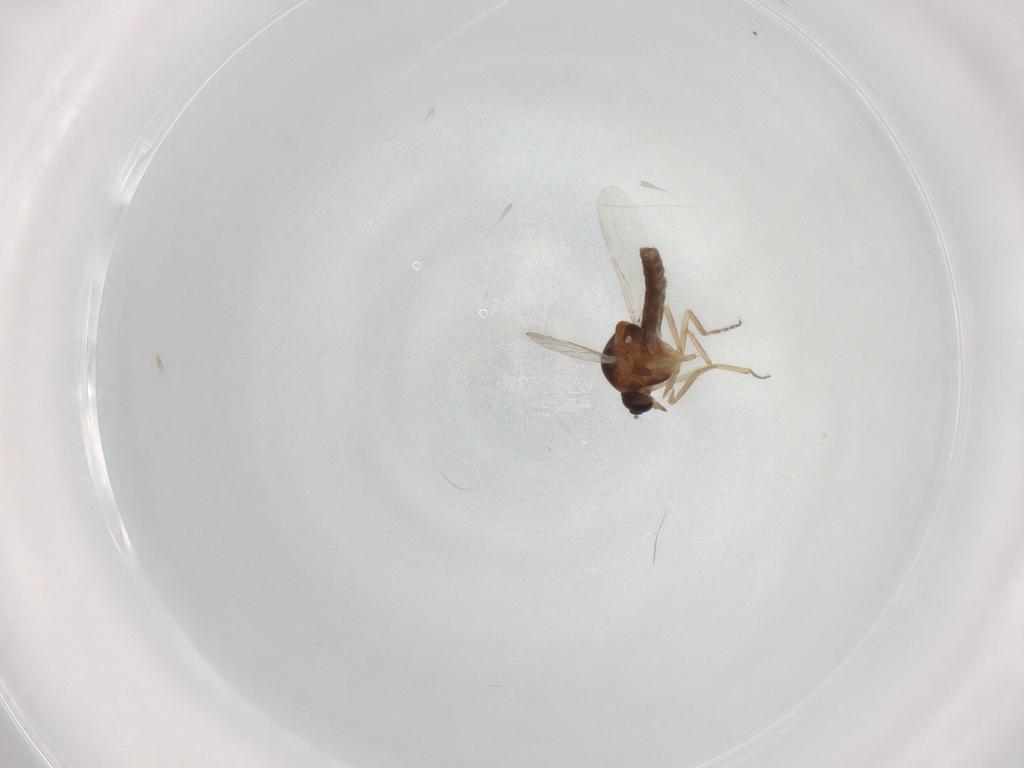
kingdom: Animalia
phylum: Arthropoda
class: Insecta
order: Diptera
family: Ceratopogonidae
